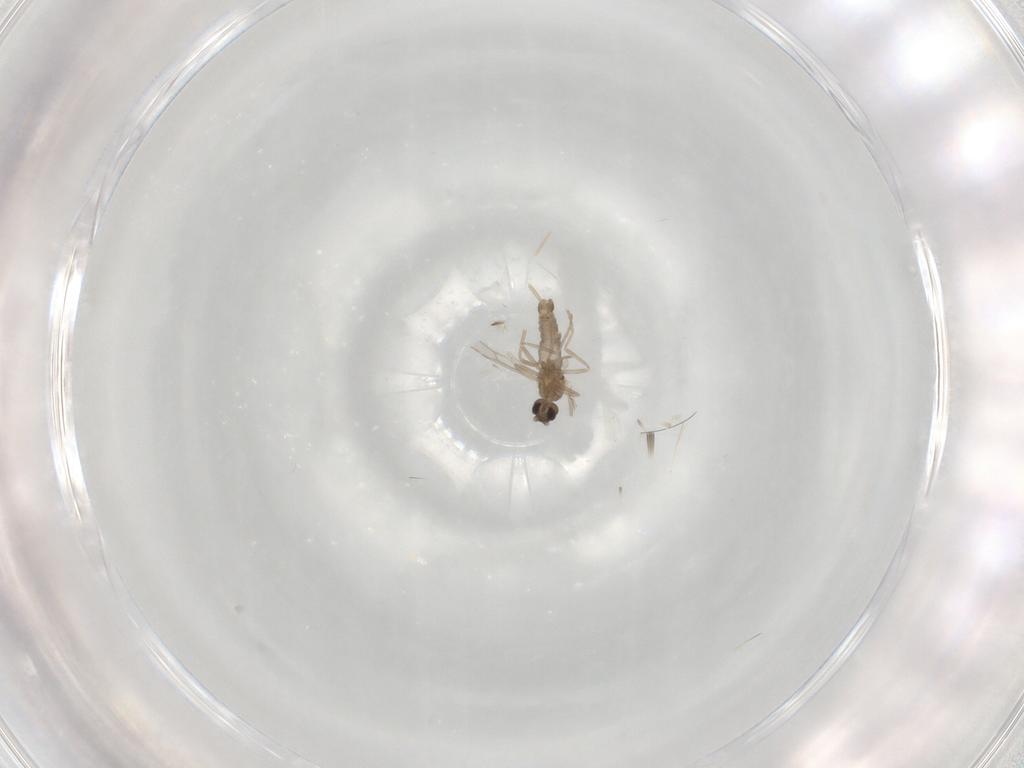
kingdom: Animalia
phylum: Arthropoda
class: Insecta
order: Diptera
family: Cecidomyiidae
